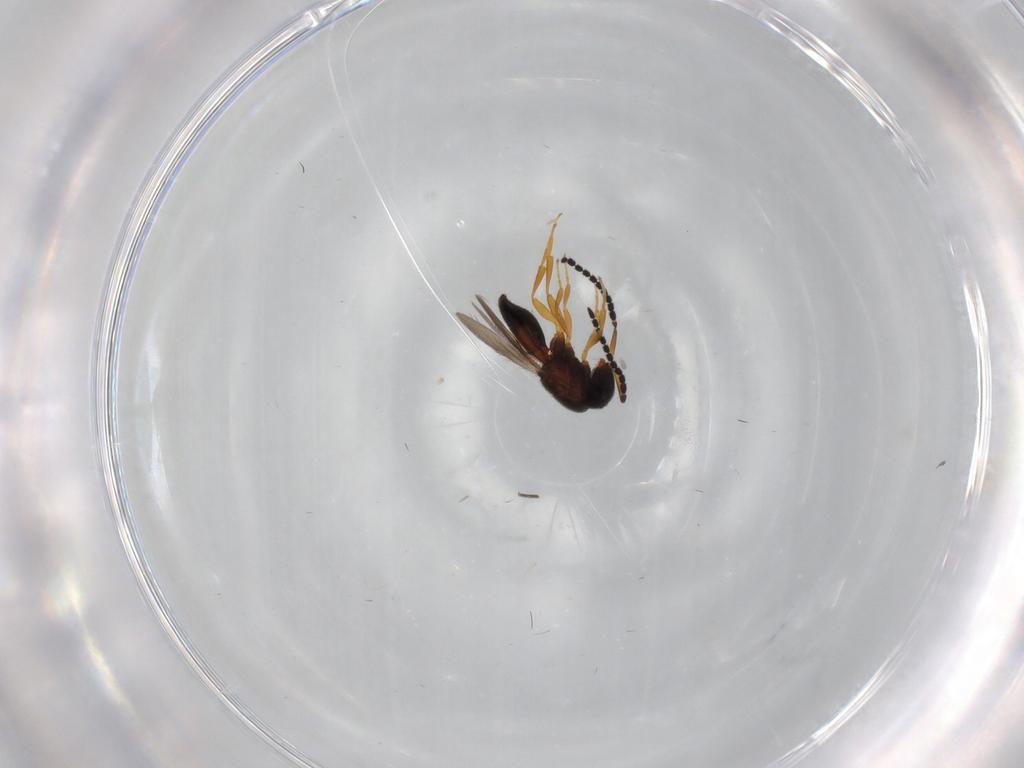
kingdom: Animalia
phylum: Arthropoda
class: Insecta
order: Hymenoptera
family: Scelionidae
